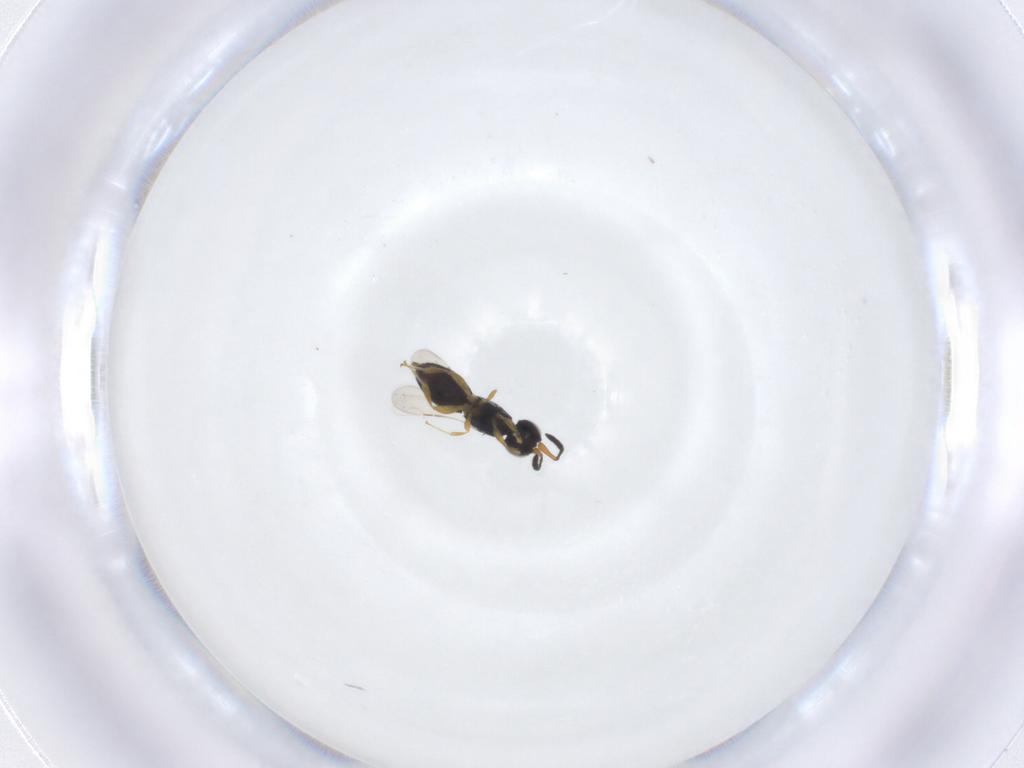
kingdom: Animalia
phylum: Arthropoda
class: Insecta
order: Hymenoptera
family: Ceraphronidae
